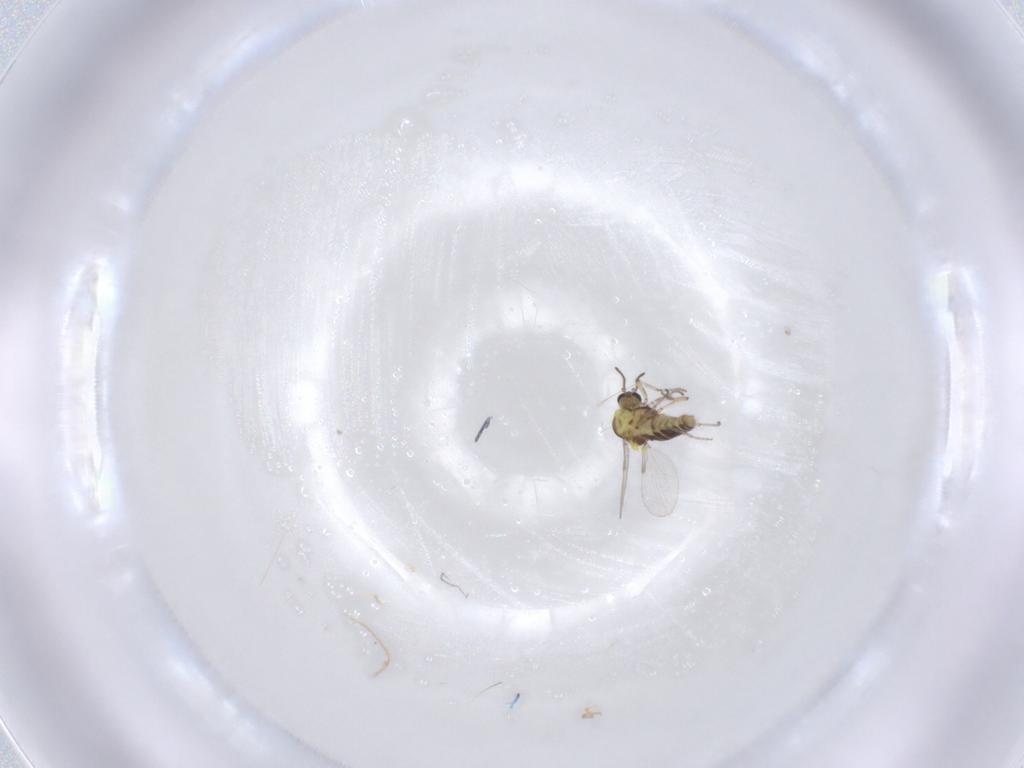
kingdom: Animalia
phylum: Arthropoda
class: Insecta
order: Diptera
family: Ceratopogonidae
